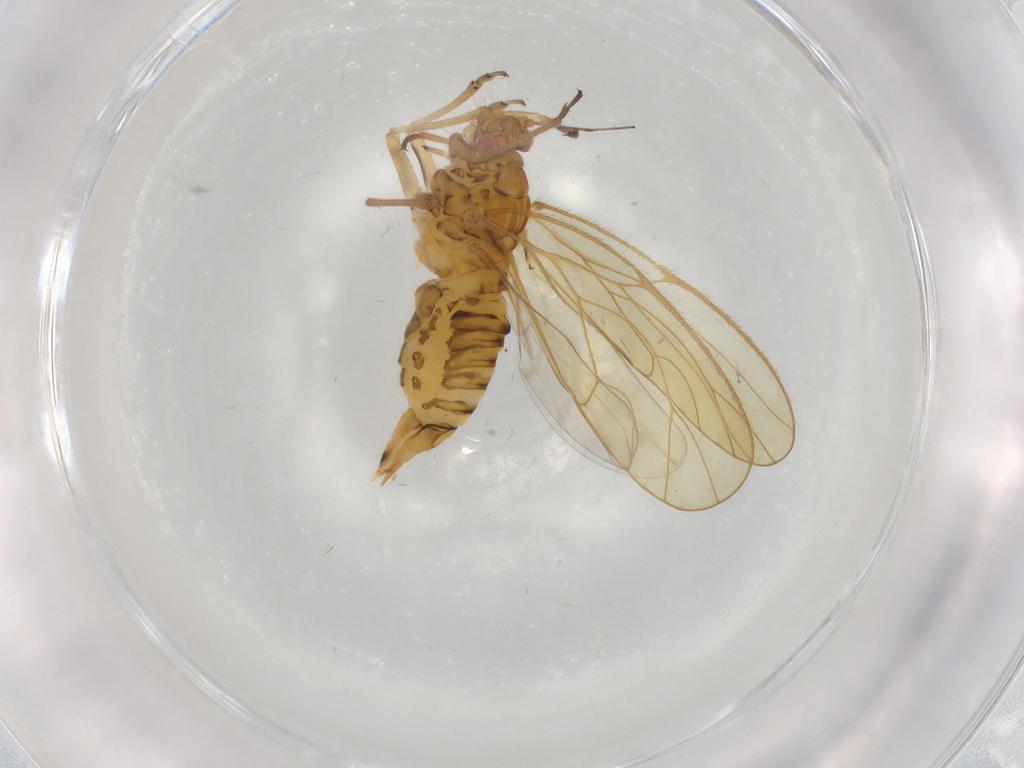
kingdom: Animalia
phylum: Arthropoda
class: Insecta
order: Hemiptera
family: Psyllidae
